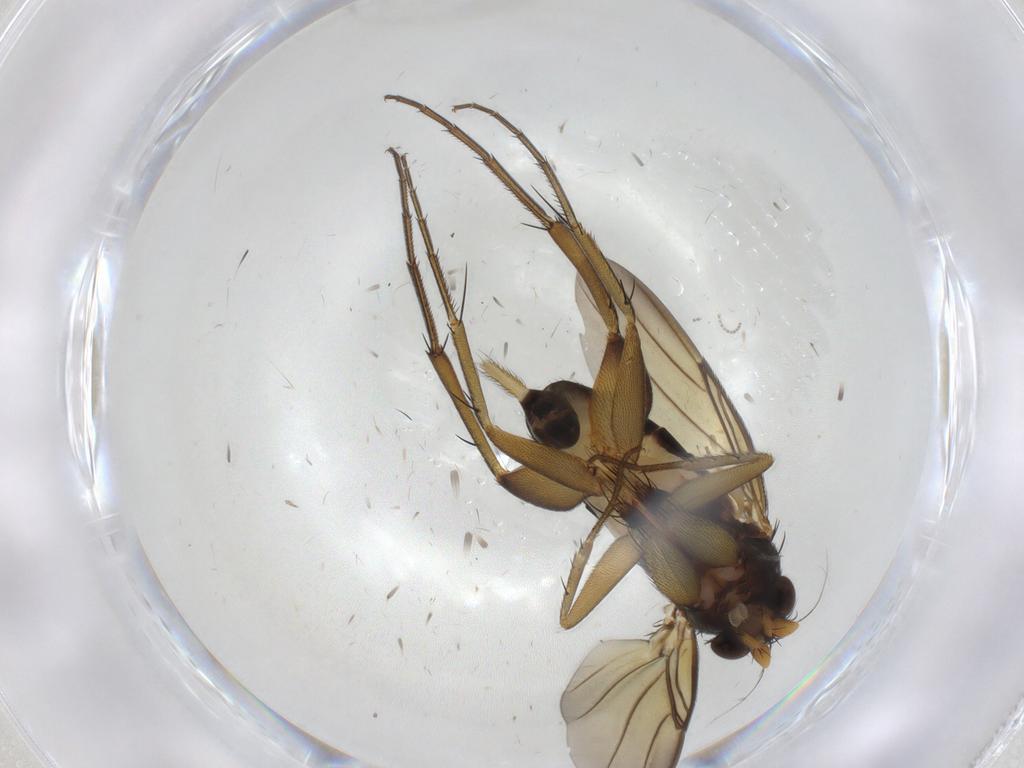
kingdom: Animalia
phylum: Arthropoda
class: Insecta
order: Diptera
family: Phoridae
